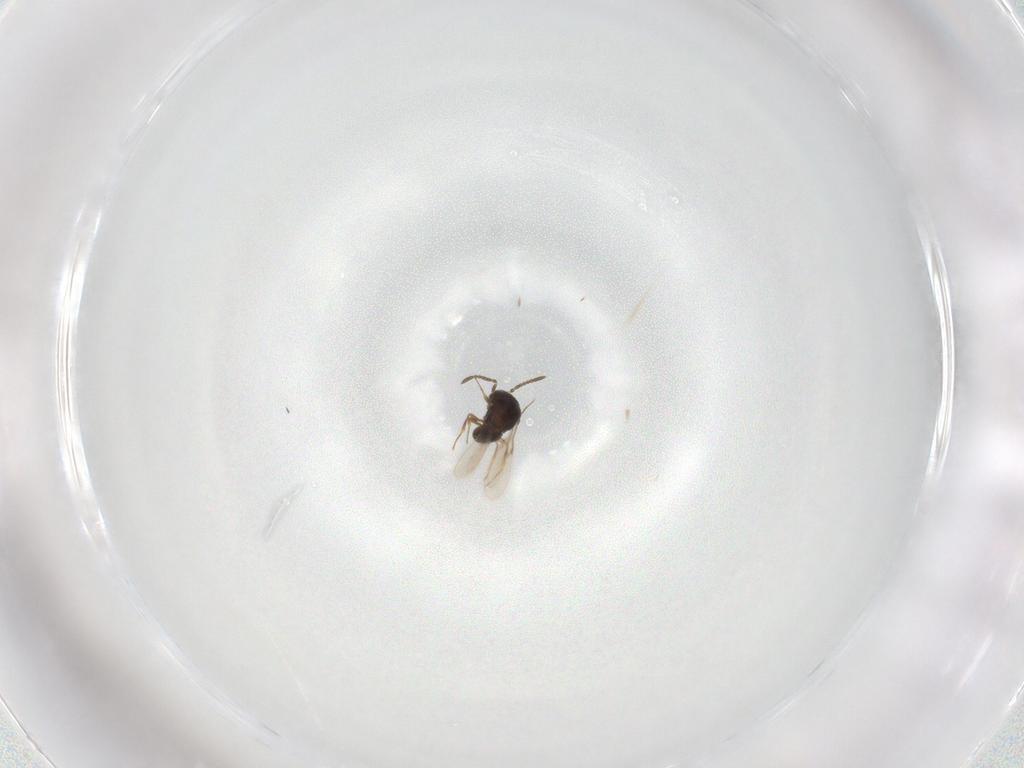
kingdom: Animalia
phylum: Arthropoda
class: Insecta
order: Hymenoptera
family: Scelionidae
